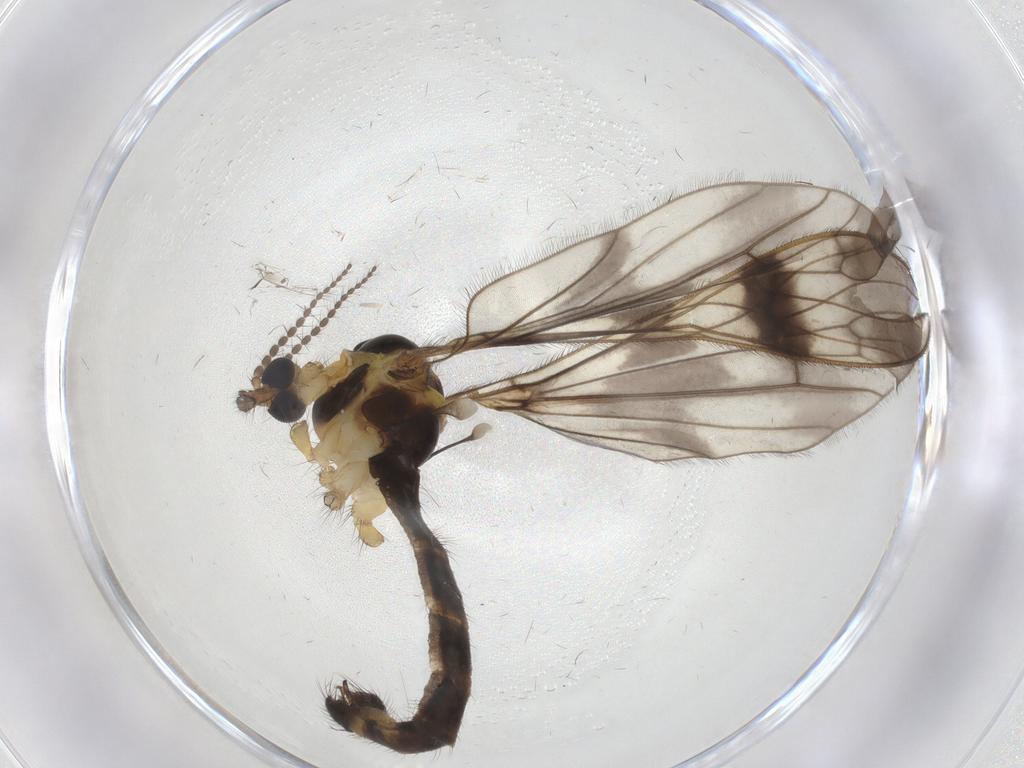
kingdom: Animalia
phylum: Arthropoda
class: Insecta
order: Diptera
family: Limoniidae
